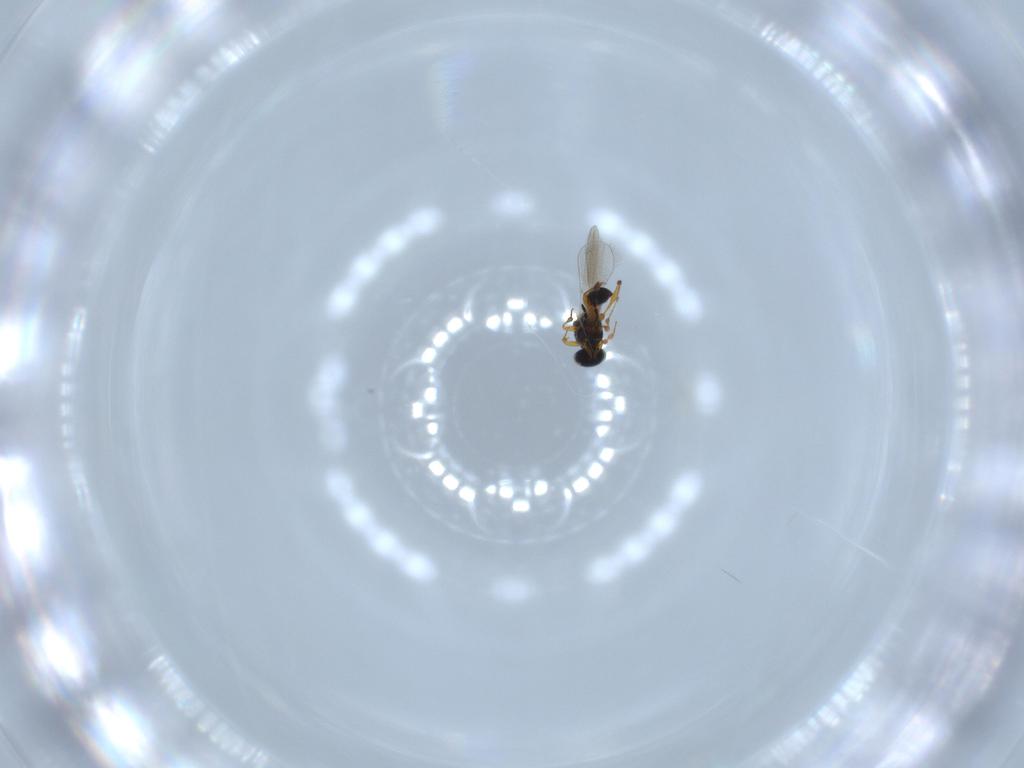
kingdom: Animalia
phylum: Arthropoda
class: Insecta
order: Hymenoptera
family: Platygastridae
